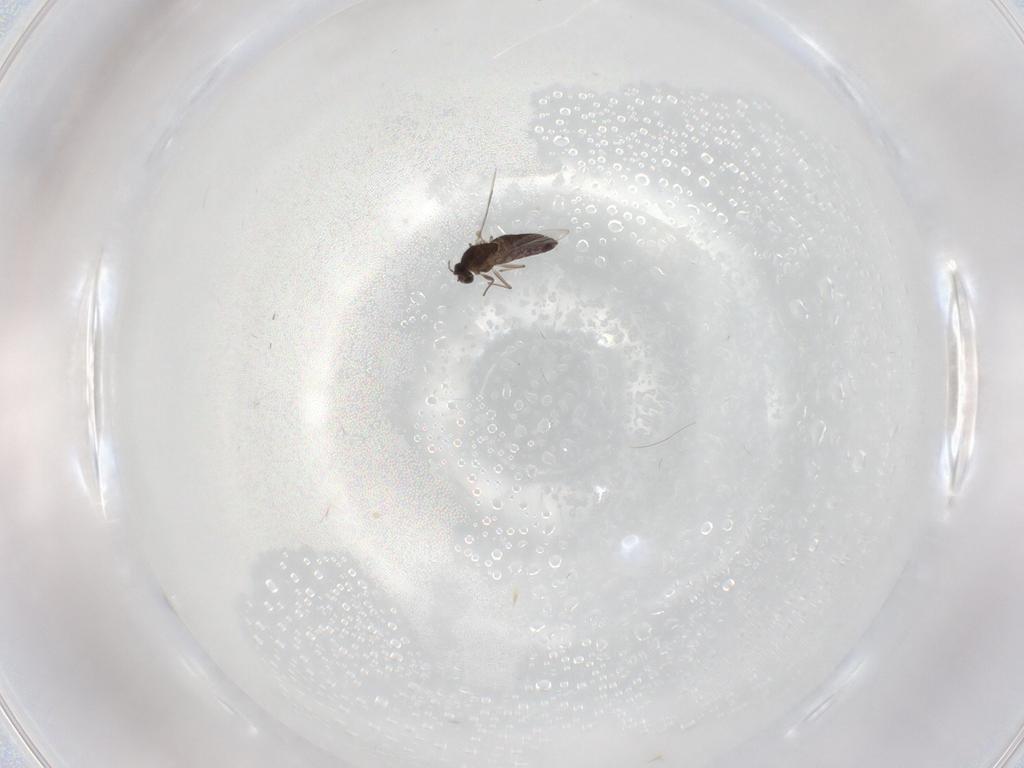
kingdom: Animalia
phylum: Arthropoda
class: Insecta
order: Diptera
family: Chironomidae
